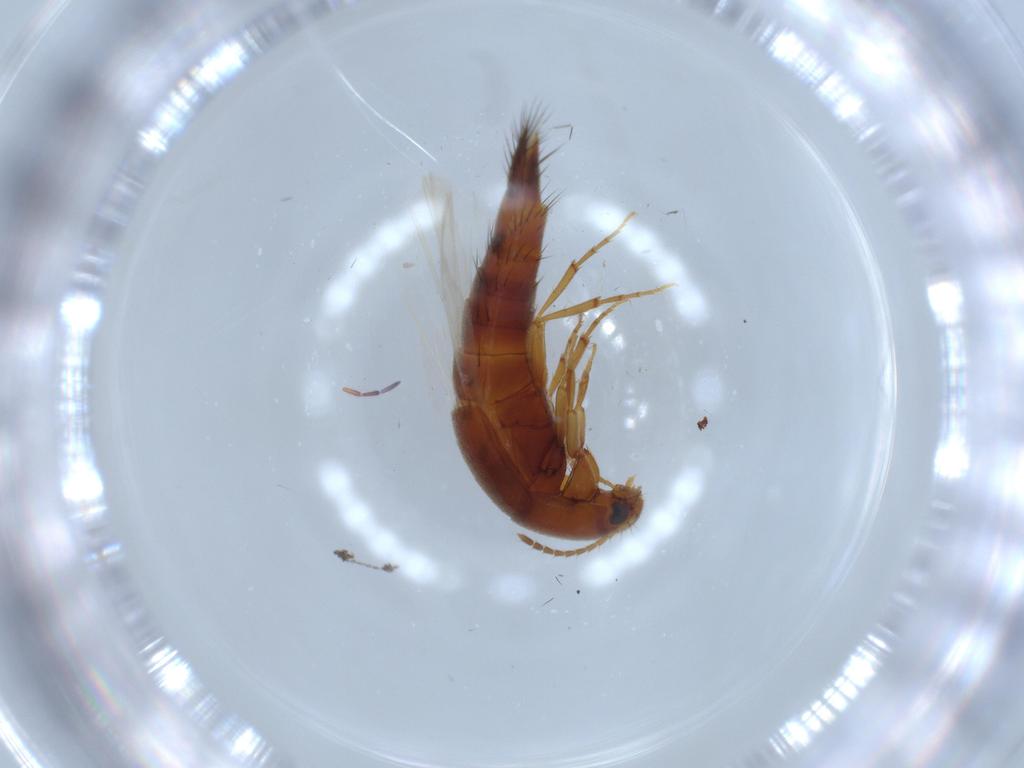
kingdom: Animalia
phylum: Arthropoda
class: Insecta
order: Coleoptera
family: Staphylinidae
